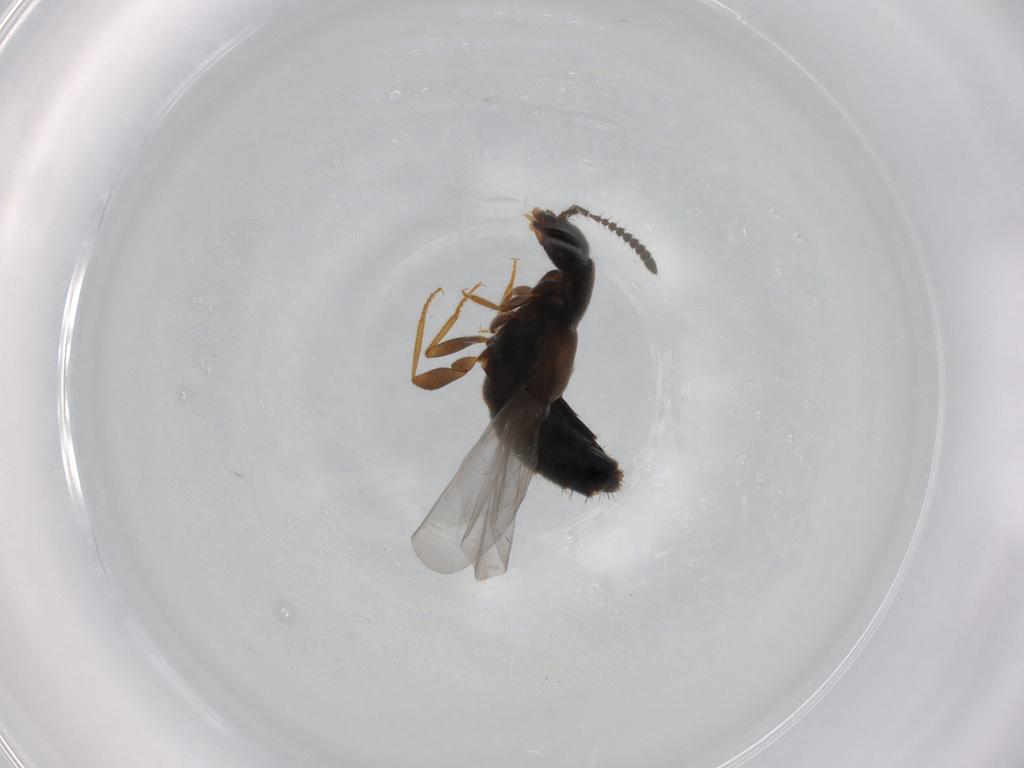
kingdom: Animalia
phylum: Arthropoda
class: Insecta
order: Coleoptera
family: Staphylinidae
